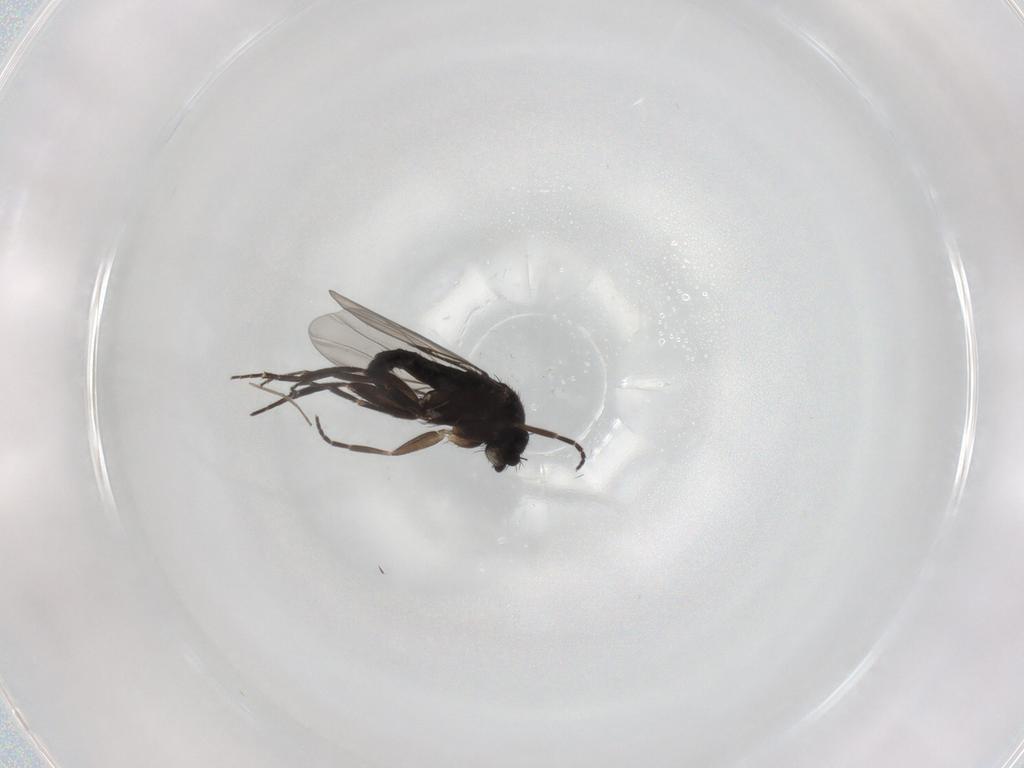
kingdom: Animalia
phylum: Arthropoda
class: Insecta
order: Diptera
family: Phoridae
